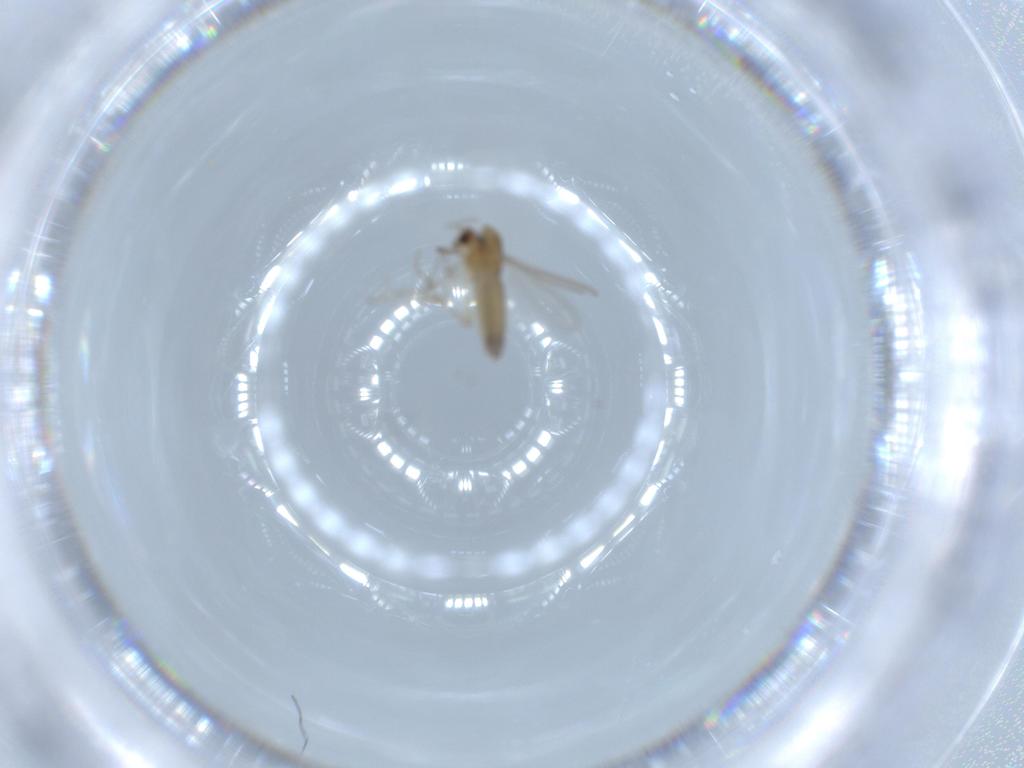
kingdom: Animalia
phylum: Arthropoda
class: Insecta
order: Diptera
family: Chironomidae
